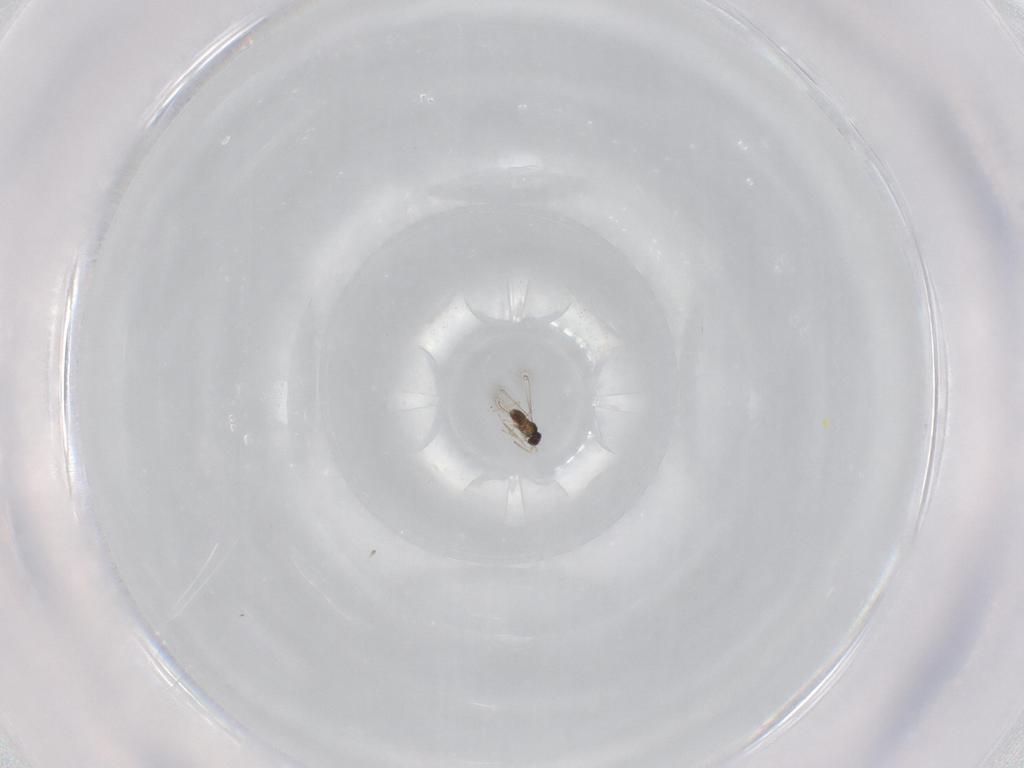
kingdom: Animalia
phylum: Arthropoda
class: Insecta
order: Hymenoptera
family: Mymaridae
